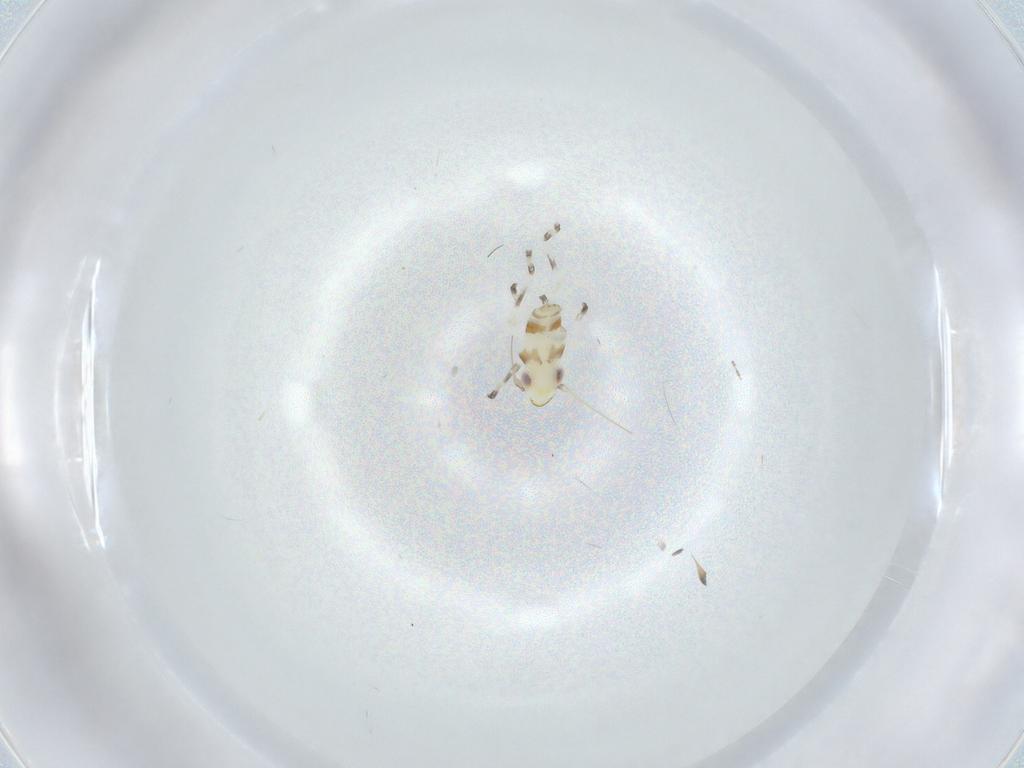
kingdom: Animalia
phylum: Arthropoda
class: Insecta
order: Hemiptera
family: Cicadellidae
